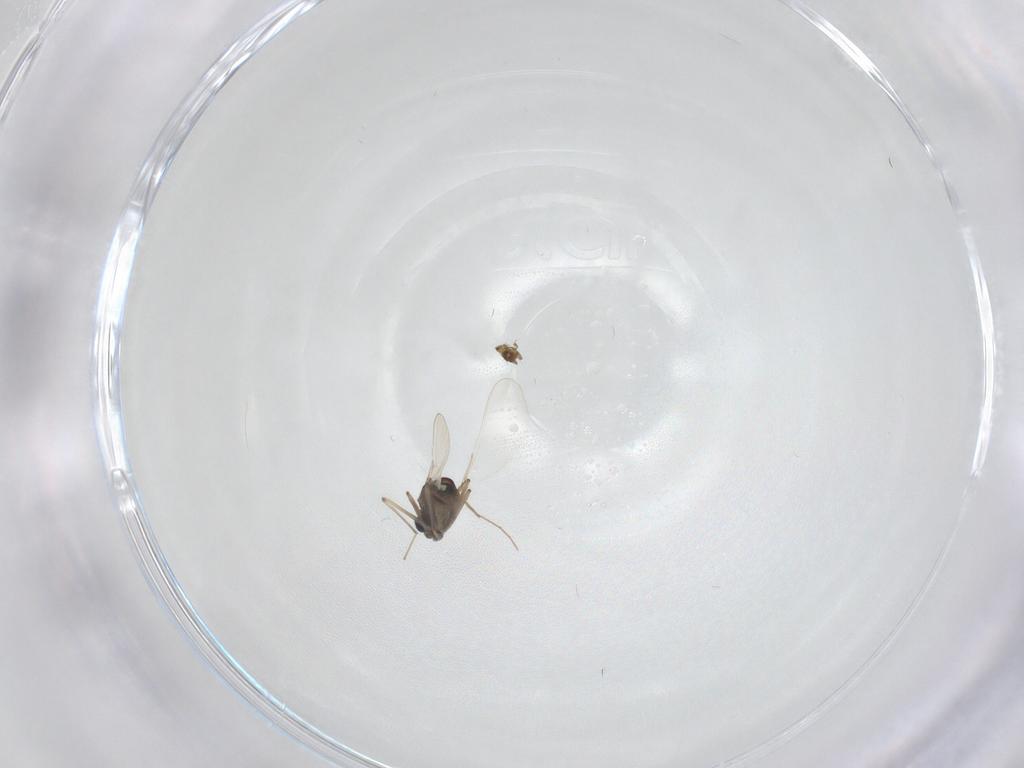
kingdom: Animalia
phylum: Arthropoda
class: Insecta
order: Diptera
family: Chironomidae
